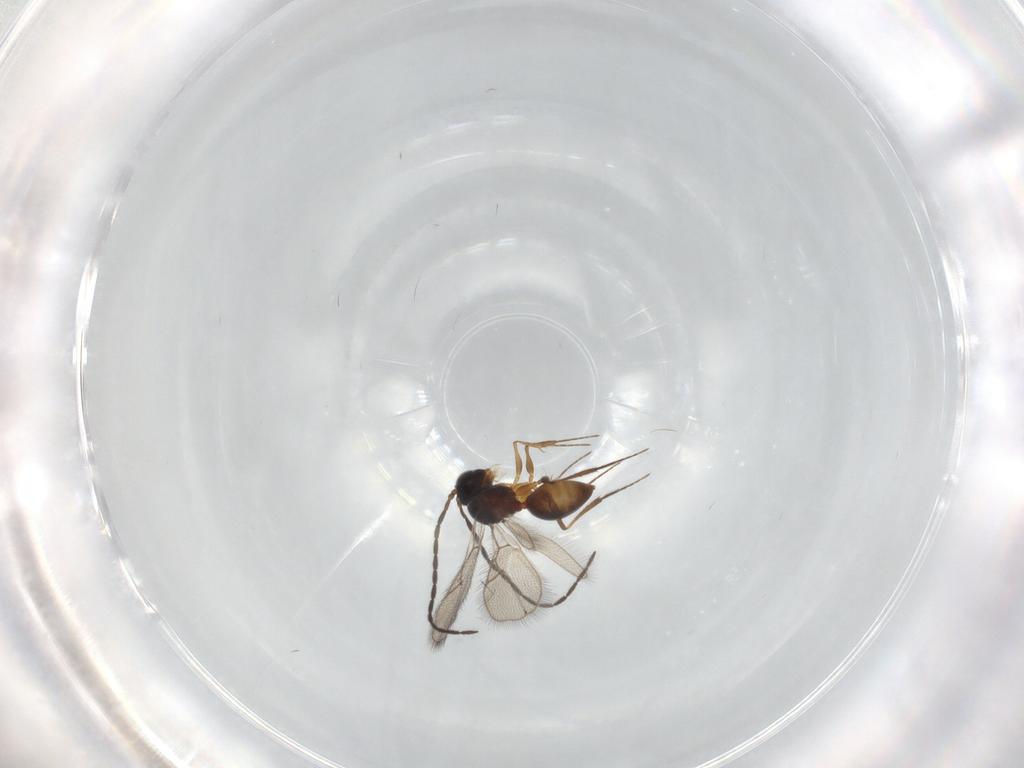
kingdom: Animalia
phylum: Arthropoda
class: Insecta
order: Hymenoptera
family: Figitidae
